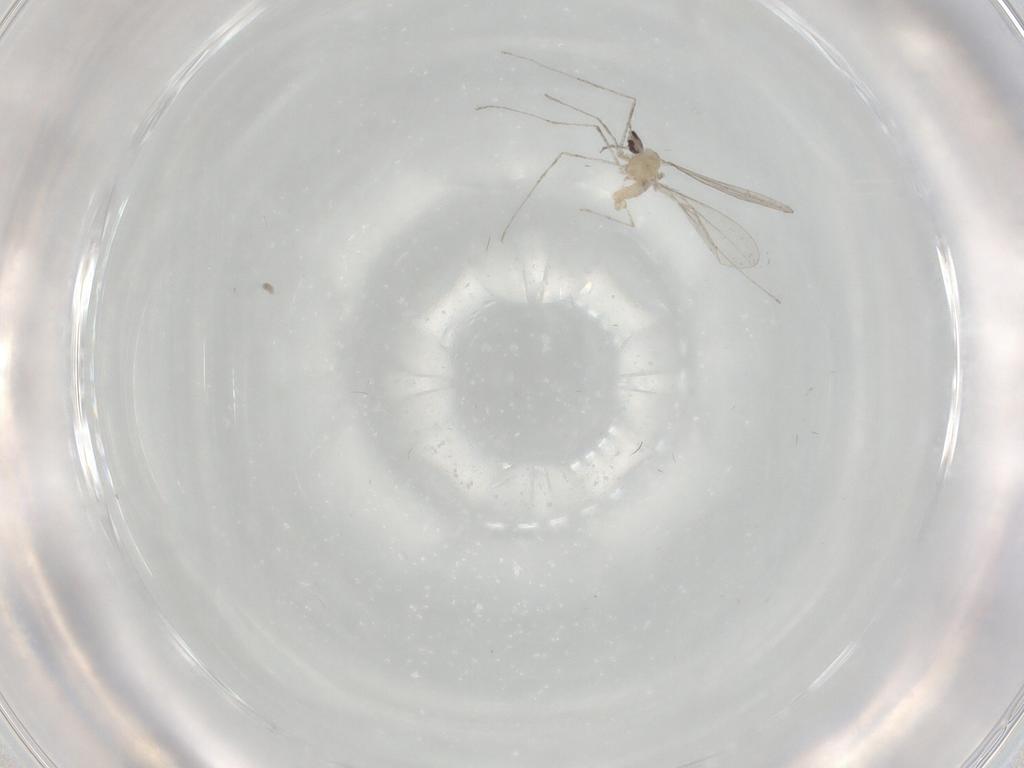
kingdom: Animalia
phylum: Arthropoda
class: Insecta
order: Diptera
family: Cecidomyiidae
